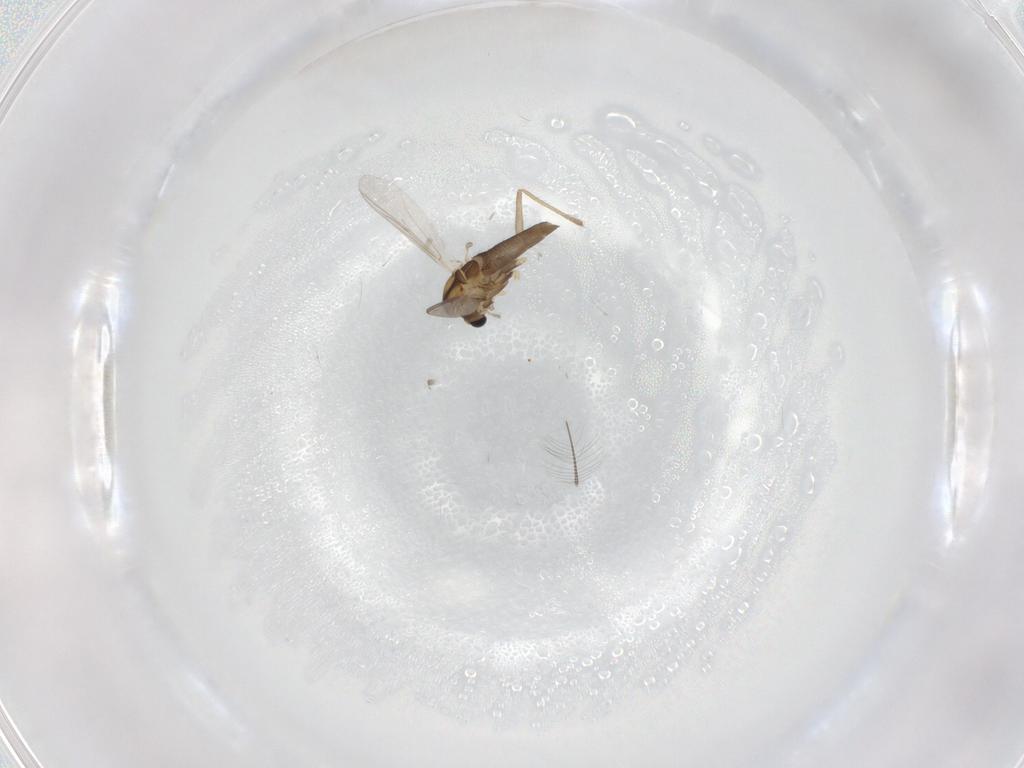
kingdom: Animalia
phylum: Arthropoda
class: Insecta
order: Diptera
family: Chironomidae
